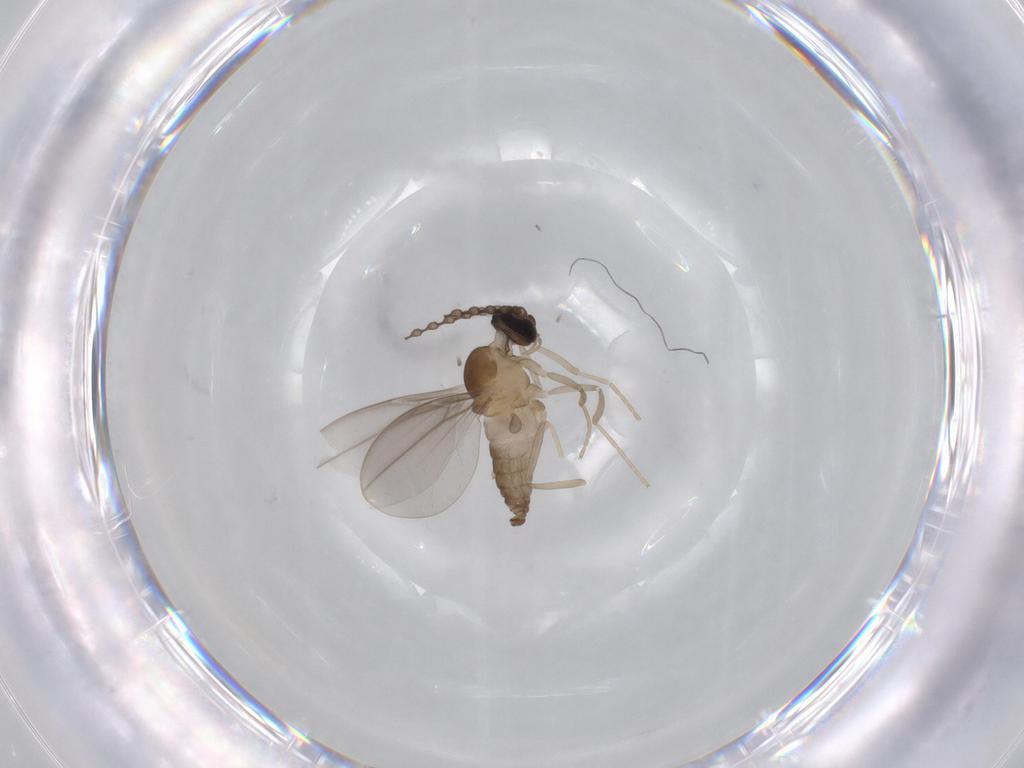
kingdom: Animalia
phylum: Arthropoda
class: Insecta
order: Diptera
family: Cecidomyiidae
